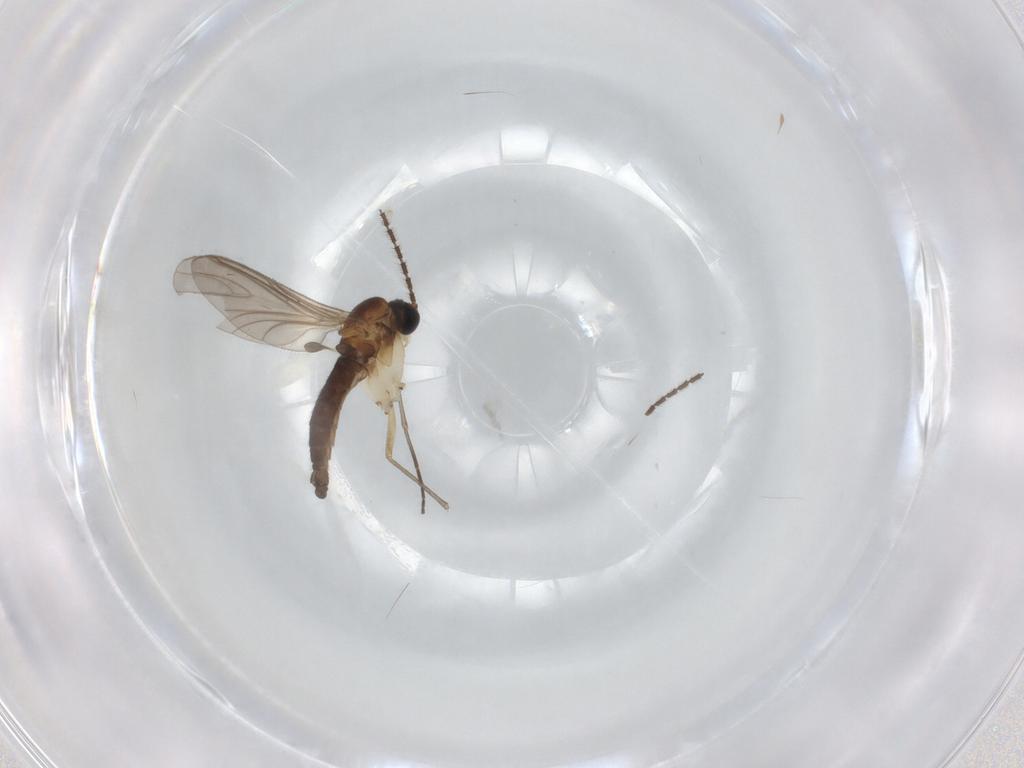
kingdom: Animalia
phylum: Arthropoda
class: Insecta
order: Diptera
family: Sciaridae
